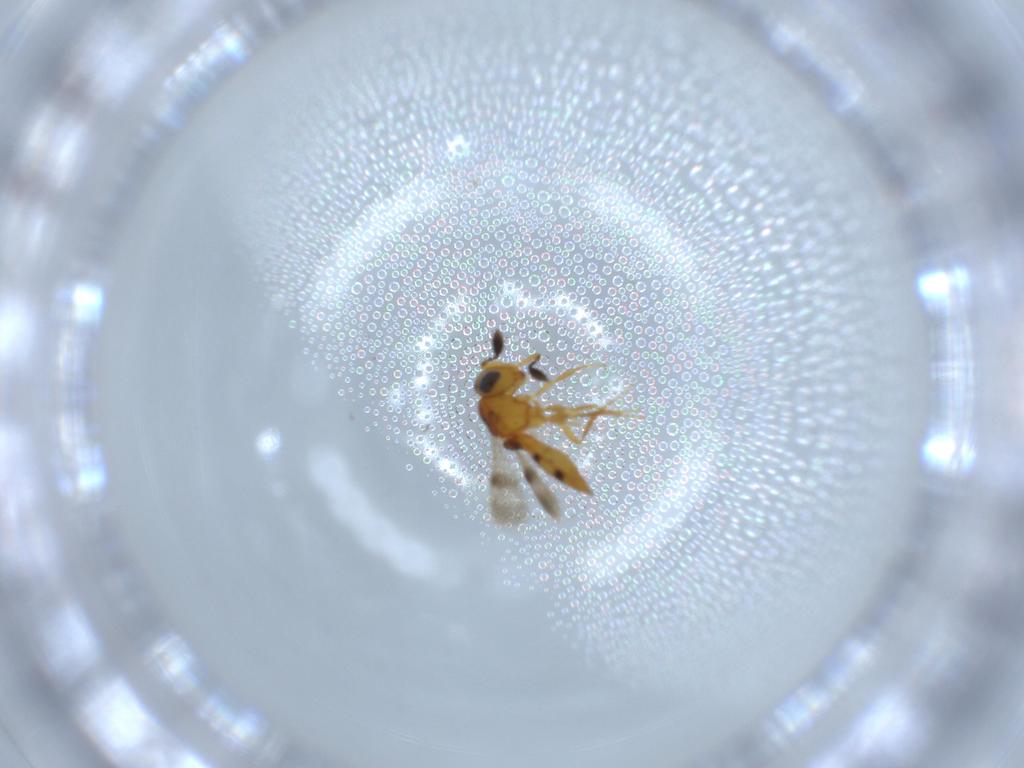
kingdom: Animalia
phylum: Arthropoda
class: Insecta
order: Hymenoptera
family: Scelionidae
